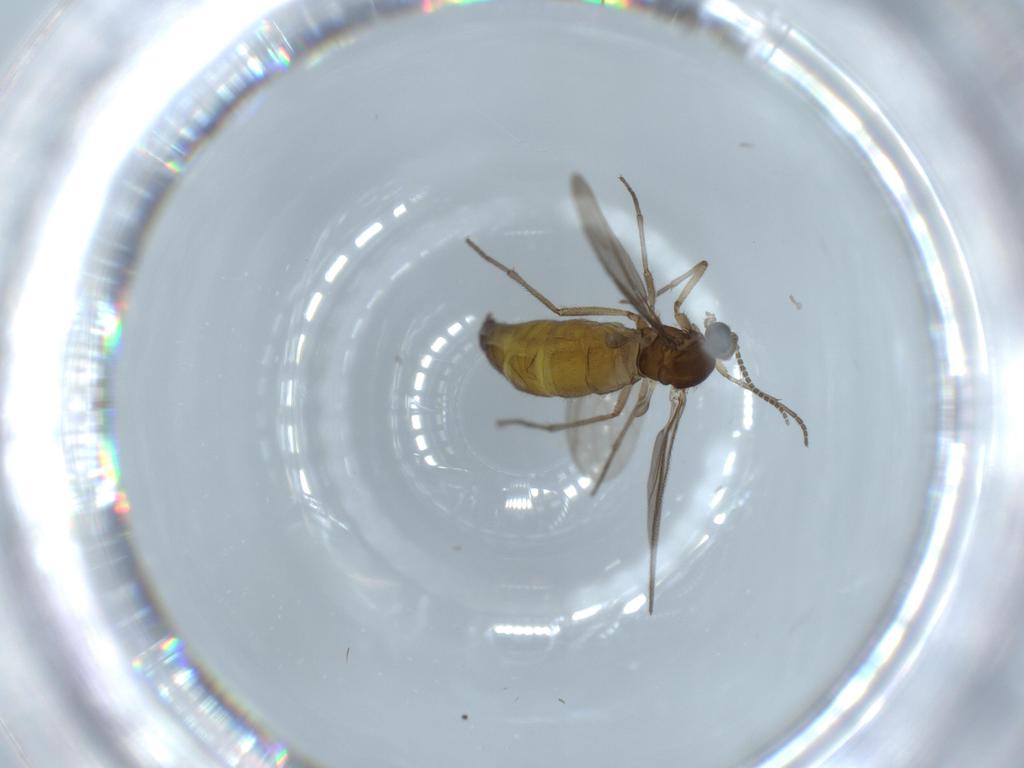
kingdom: Animalia
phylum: Arthropoda
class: Insecta
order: Diptera
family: Sciaridae
